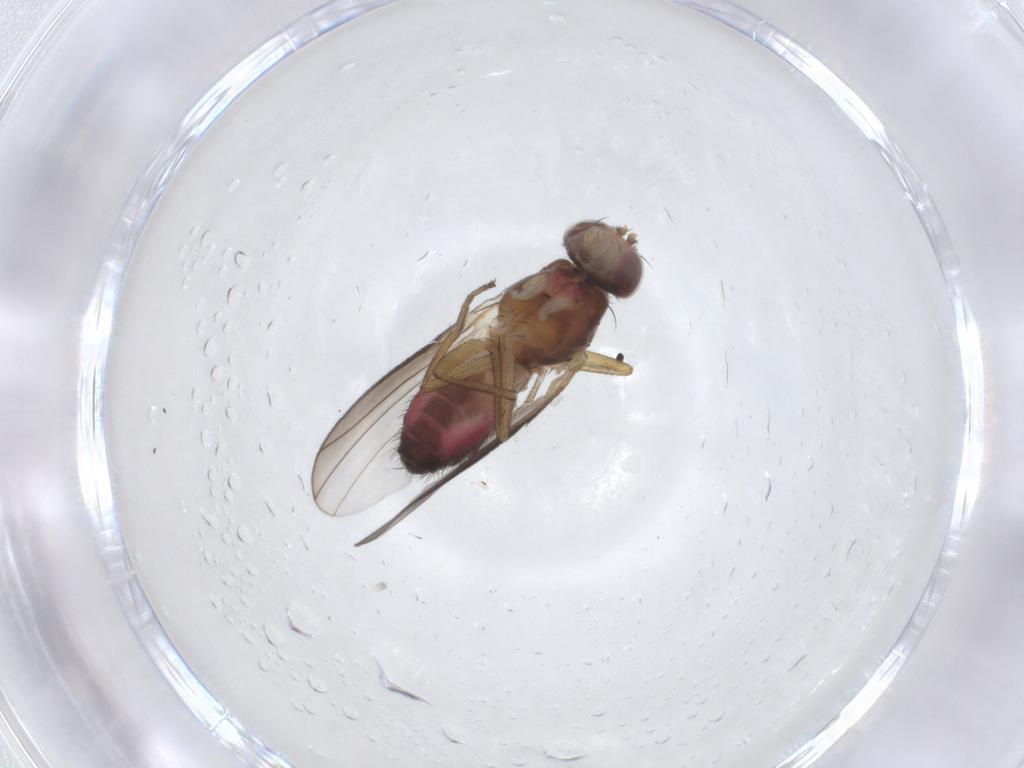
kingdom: Animalia
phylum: Arthropoda
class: Insecta
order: Diptera
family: Heleomyzidae
